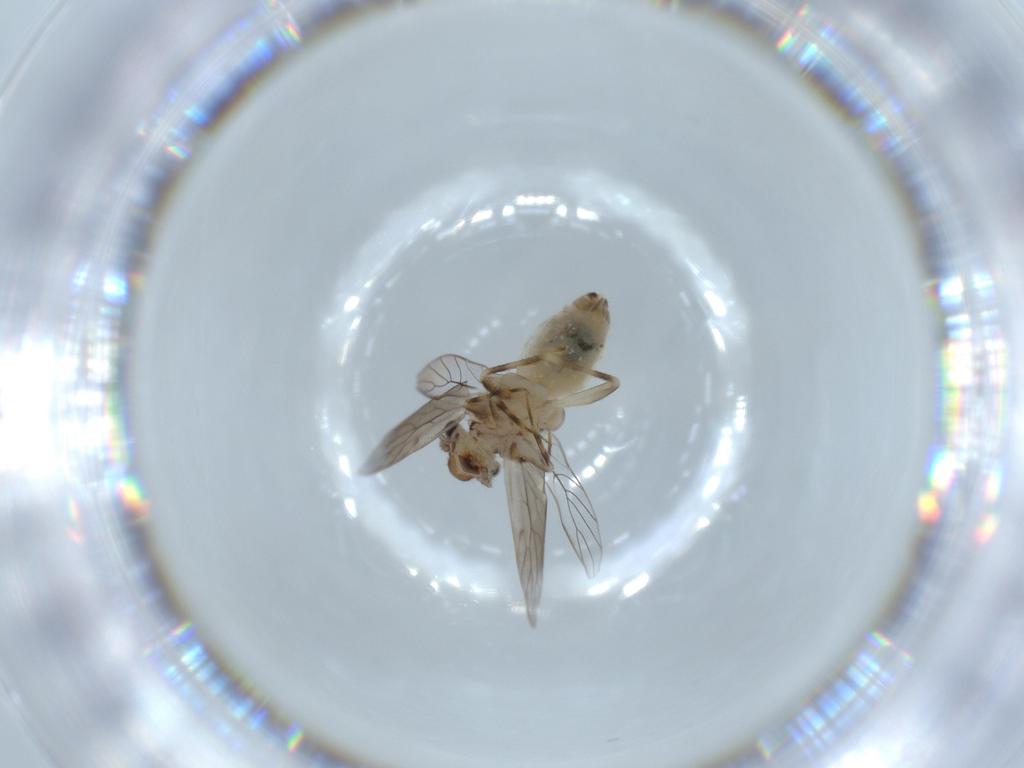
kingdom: Animalia
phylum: Arthropoda
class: Insecta
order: Psocodea
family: Lepidopsocidae
